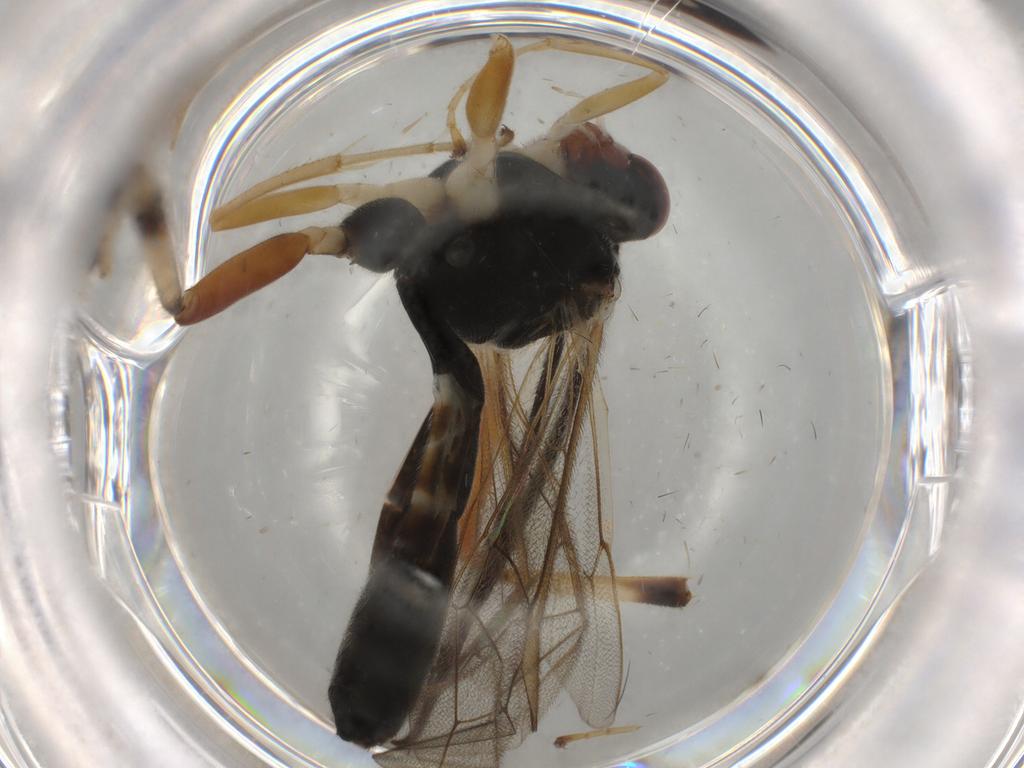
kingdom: Animalia
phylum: Arthropoda
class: Insecta
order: Hymenoptera
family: Ichneumonidae
